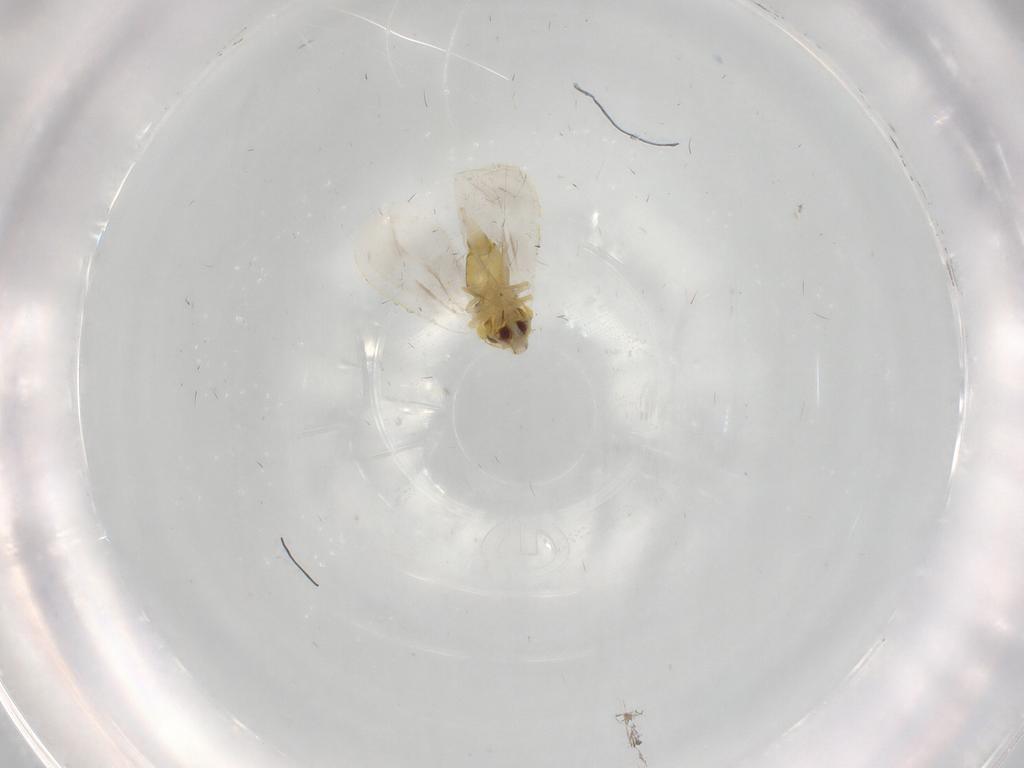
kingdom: Animalia
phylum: Arthropoda
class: Insecta
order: Hemiptera
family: Aleyrodidae
